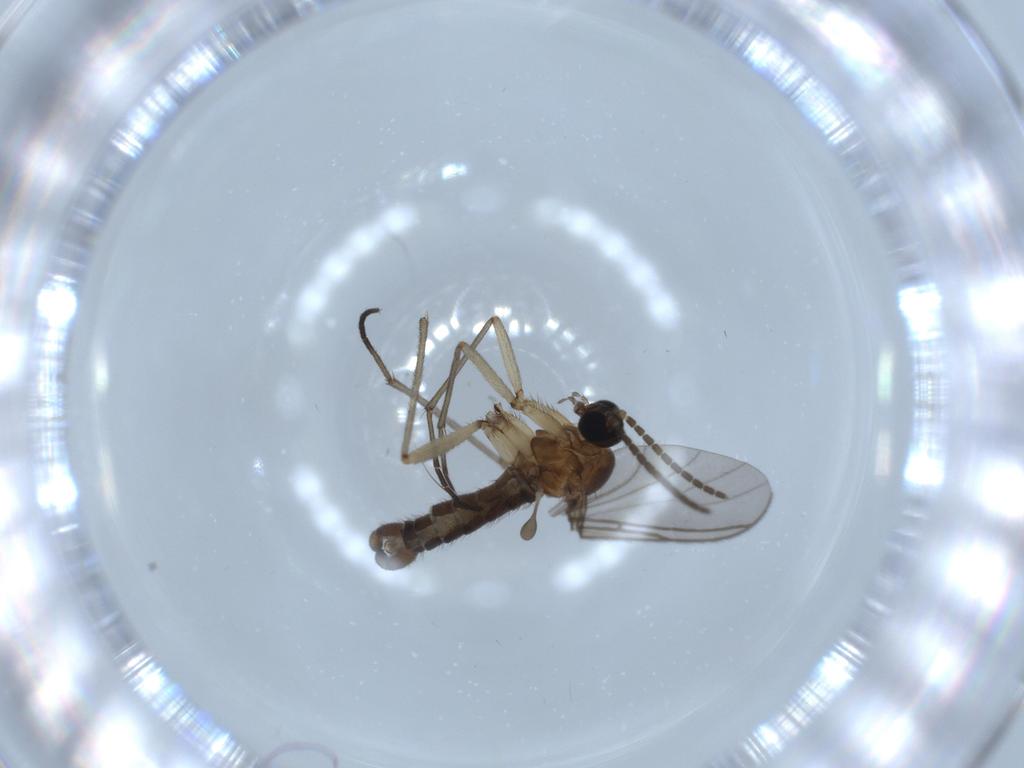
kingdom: Animalia
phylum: Arthropoda
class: Insecta
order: Diptera
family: Sciaridae
